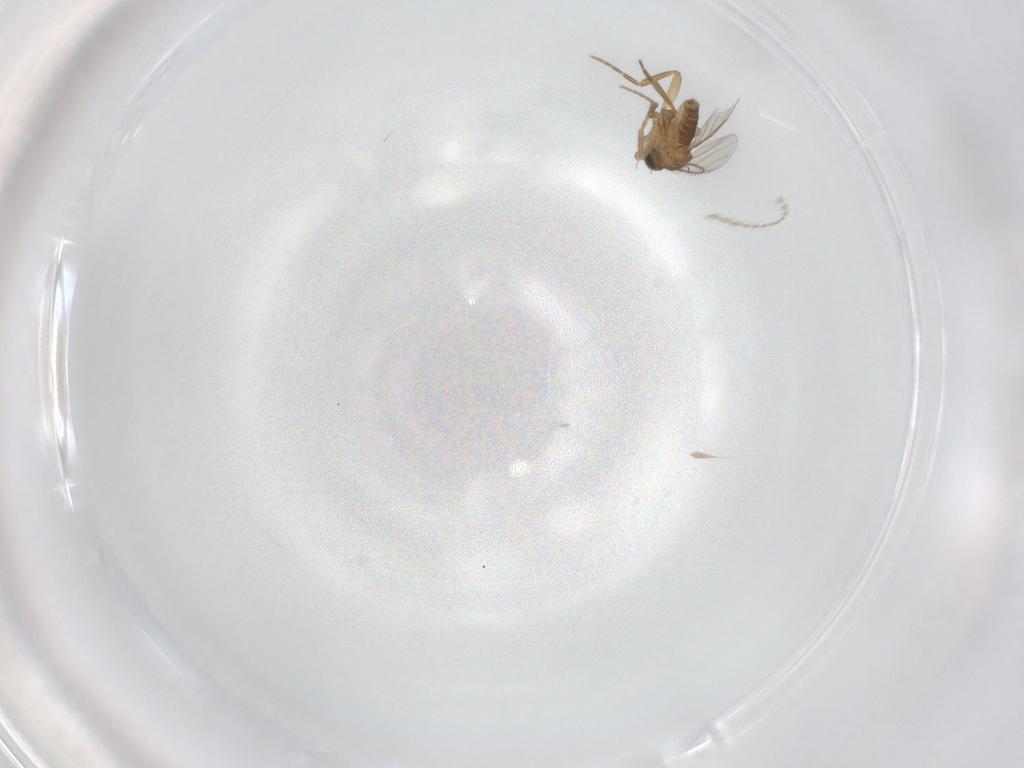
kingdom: Animalia
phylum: Arthropoda
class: Insecta
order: Diptera
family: Phoridae
